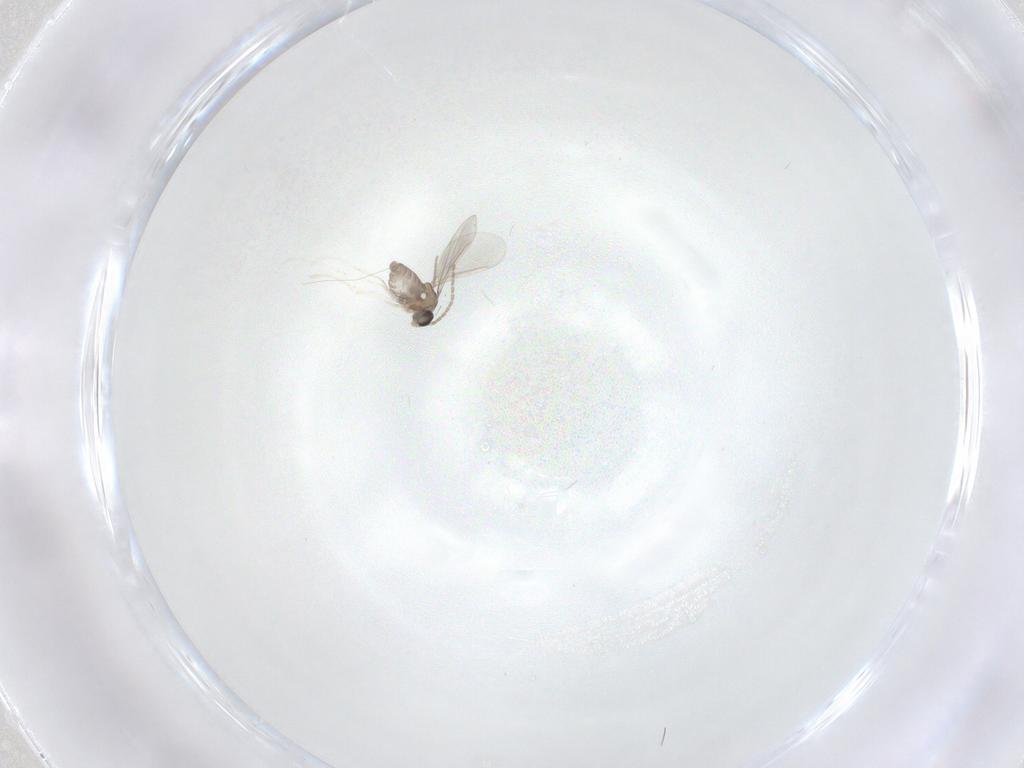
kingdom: Animalia
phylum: Arthropoda
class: Insecta
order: Diptera
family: Cecidomyiidae
